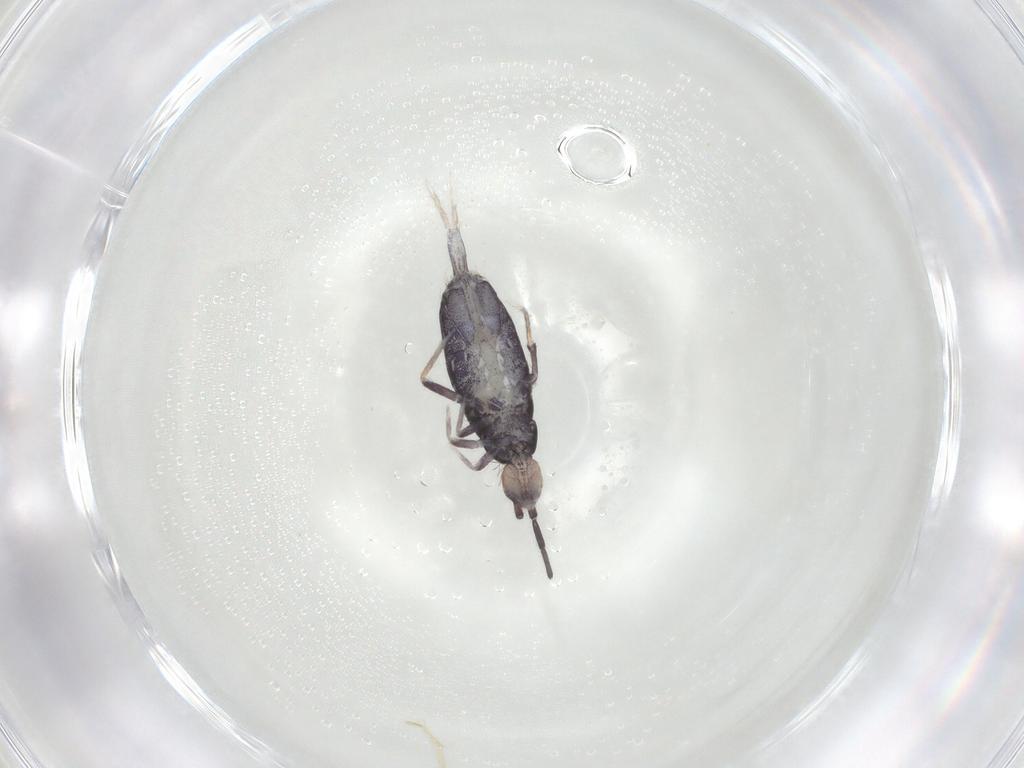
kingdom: Animalia
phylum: Arthropoda
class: Collembola
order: Entomobryomorpha
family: Entomobryidae
